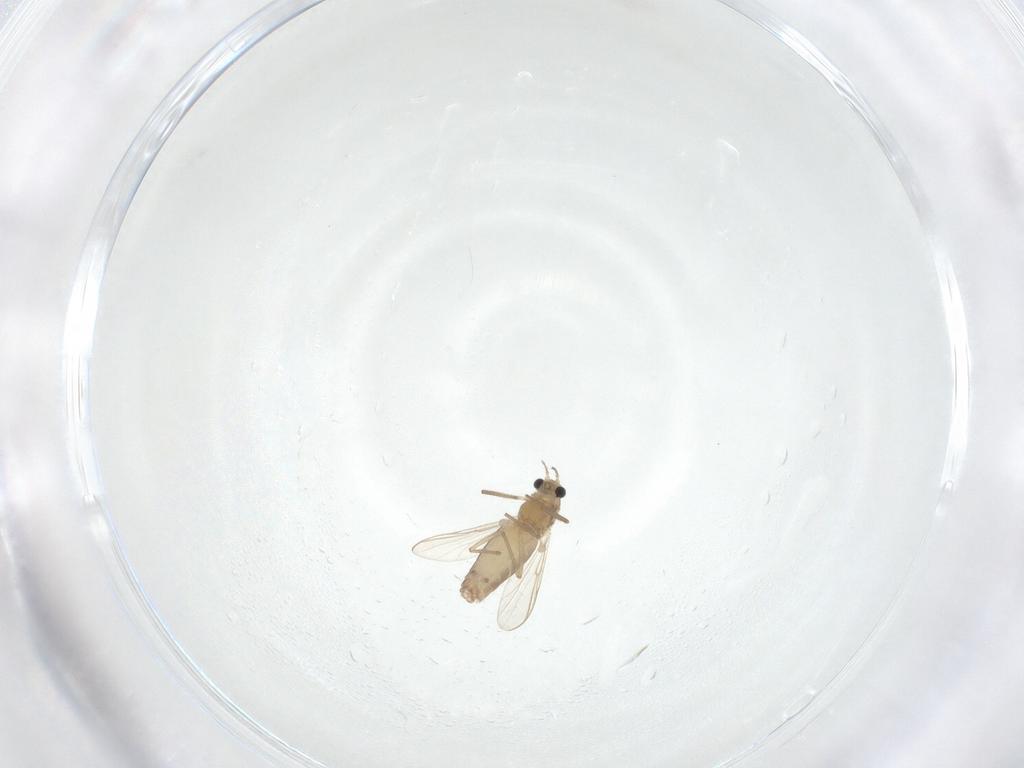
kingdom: Animalia
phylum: Arthropoda
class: Insecta
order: Diptera
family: Chironomidae
